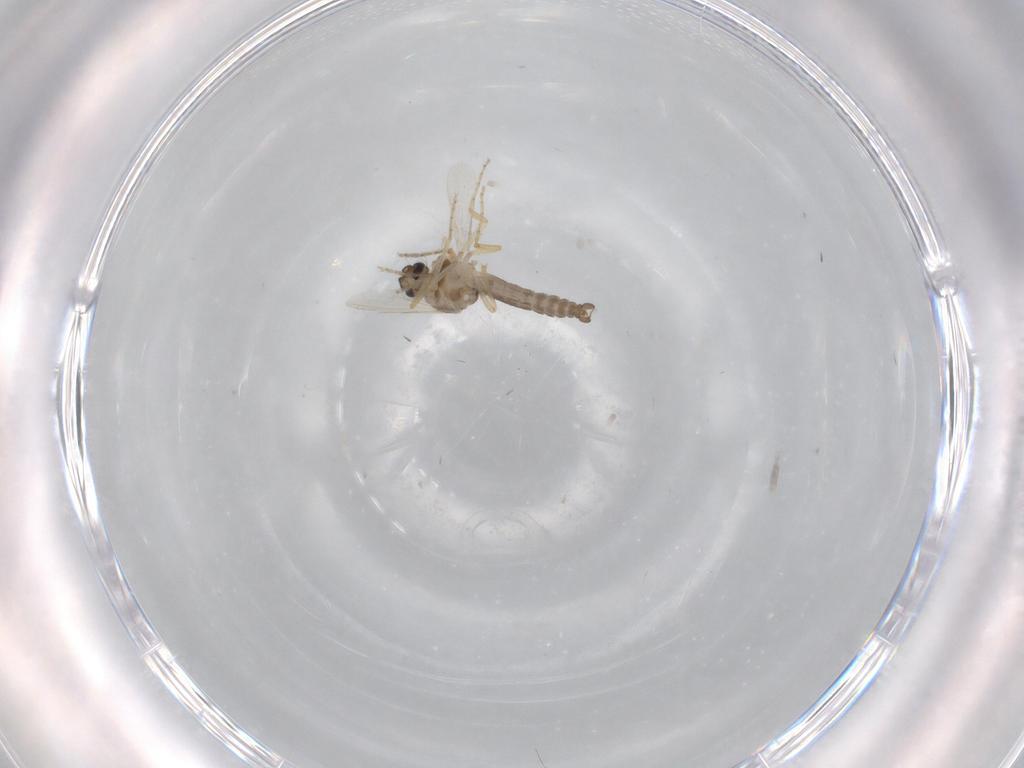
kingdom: Animalia
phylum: Arthropoda
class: Insecta
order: Diptera
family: Ceratopogonidae
